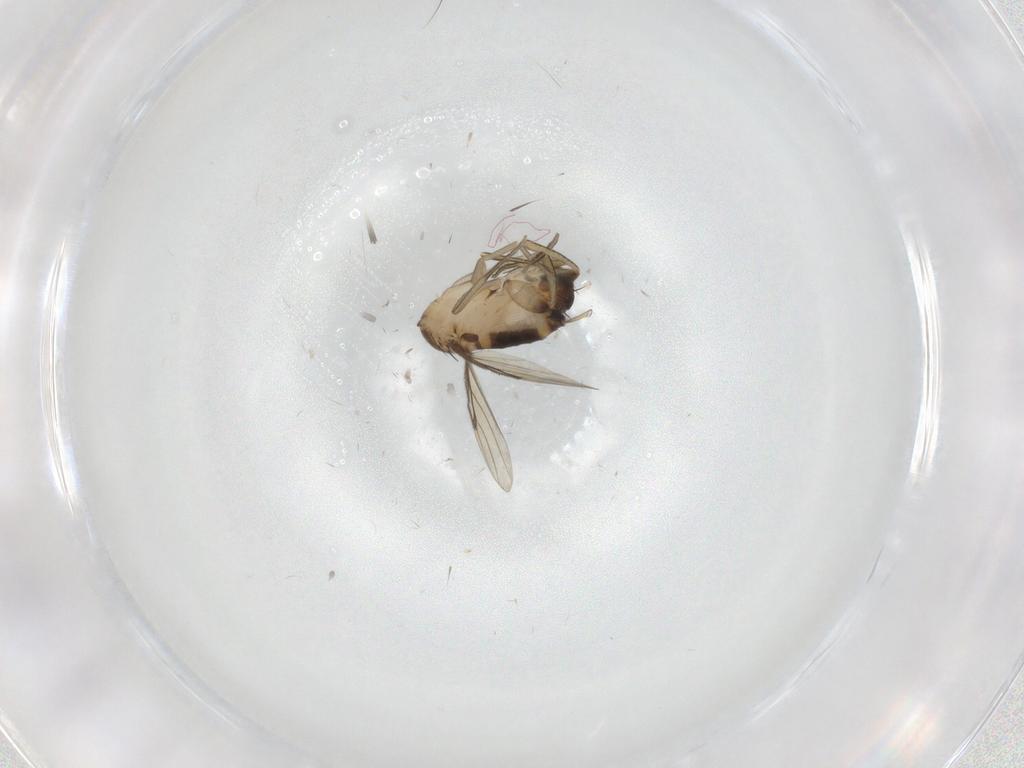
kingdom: Animalia
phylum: Arthropoda
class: Insecta
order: Diptera
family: Phoridae
